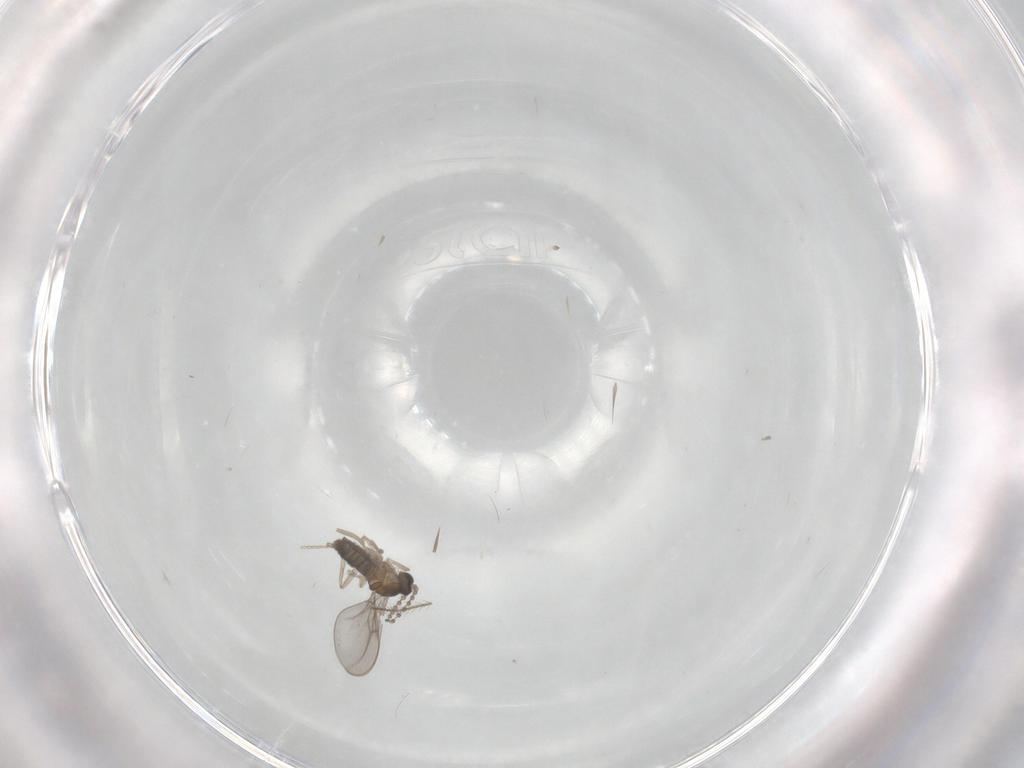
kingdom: Animalia
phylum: Arthropoda
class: Insecta
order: Diptera
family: Cecidomyiidae
